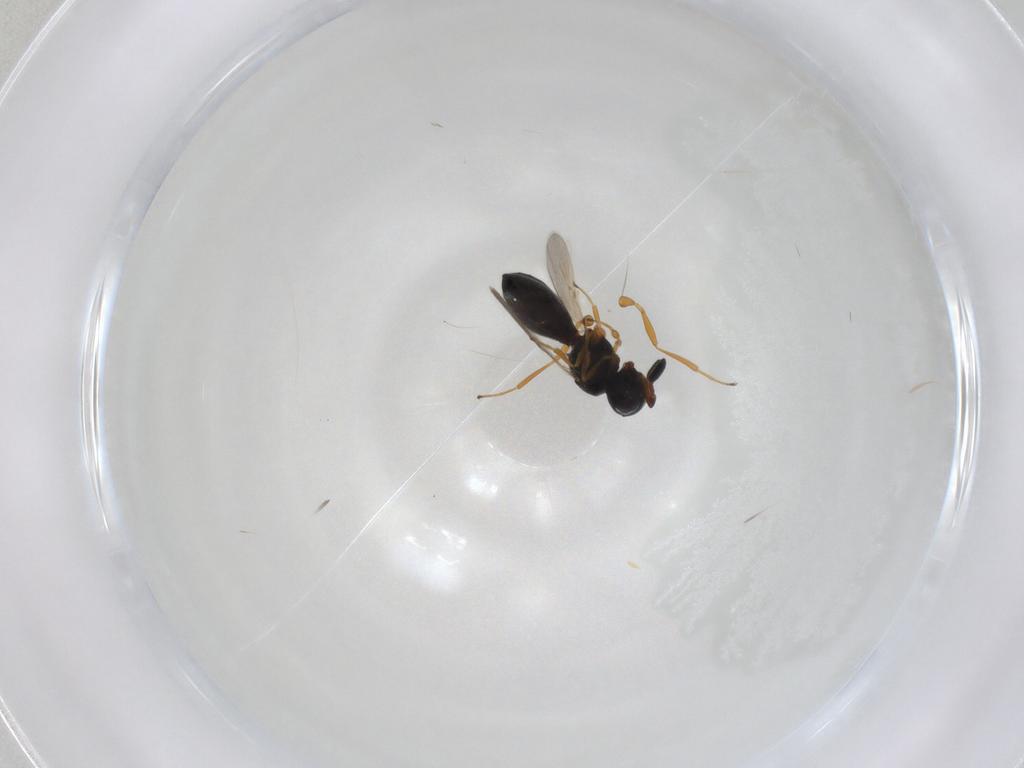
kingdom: Animalia
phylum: Arthropoda
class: Insecta
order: Hymenoptera
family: Scelionidae
